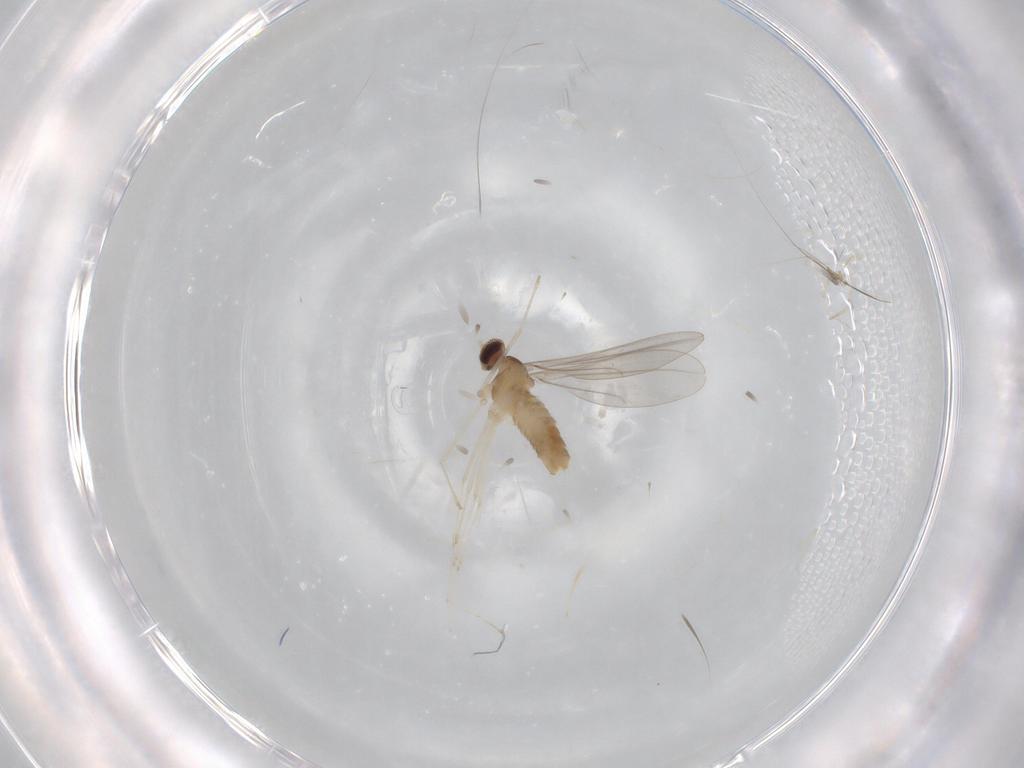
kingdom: Animalia
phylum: Arthropoda
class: Insecta
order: Diptera
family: Cecidomyiidae
